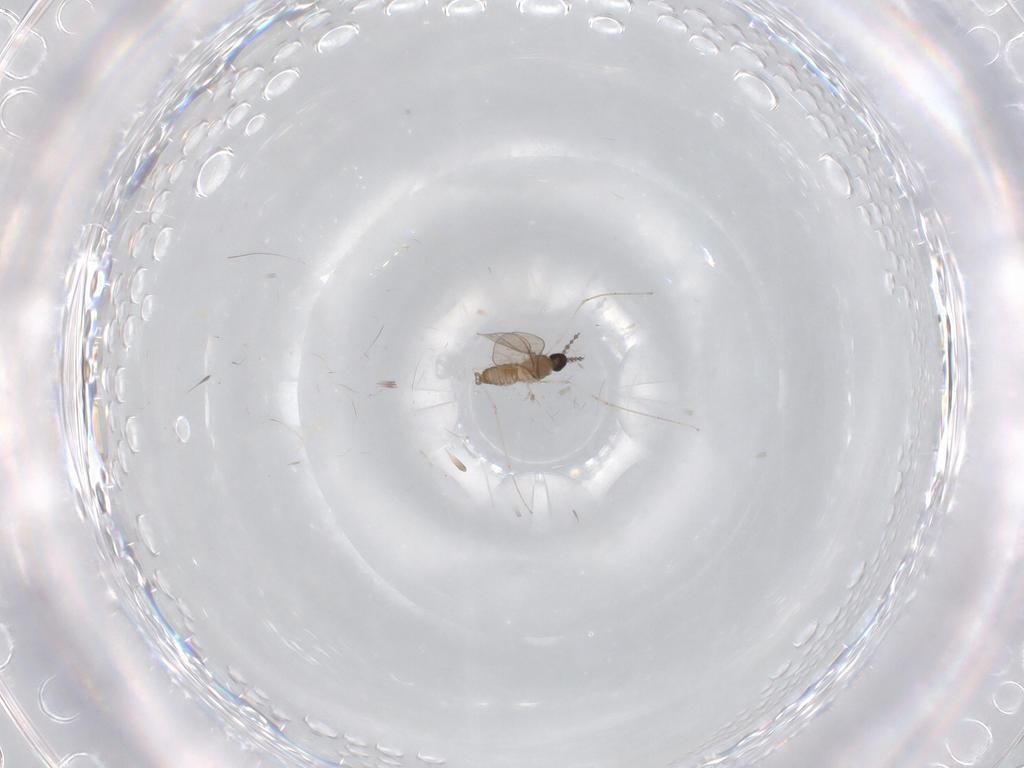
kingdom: Animalia
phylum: Arthropoda
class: Insecta
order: Diptera
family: Cecidomyiidae
